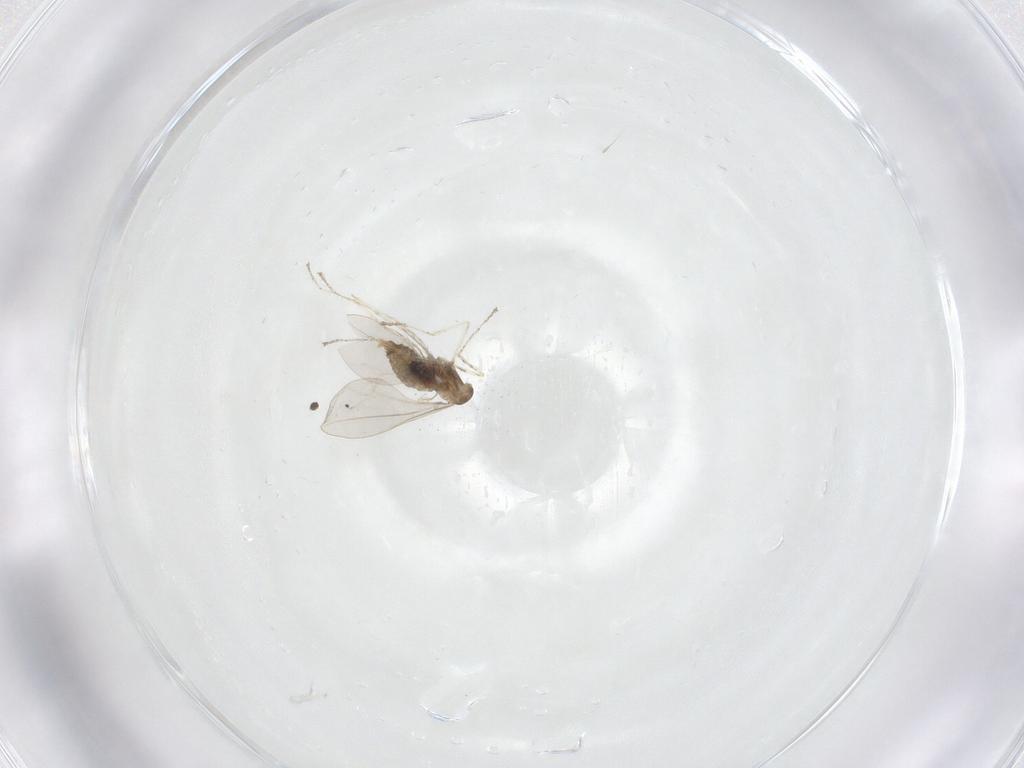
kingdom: Animalia
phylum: Arthropoda
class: Insecta
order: Diptera
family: Cecidomyiidae
